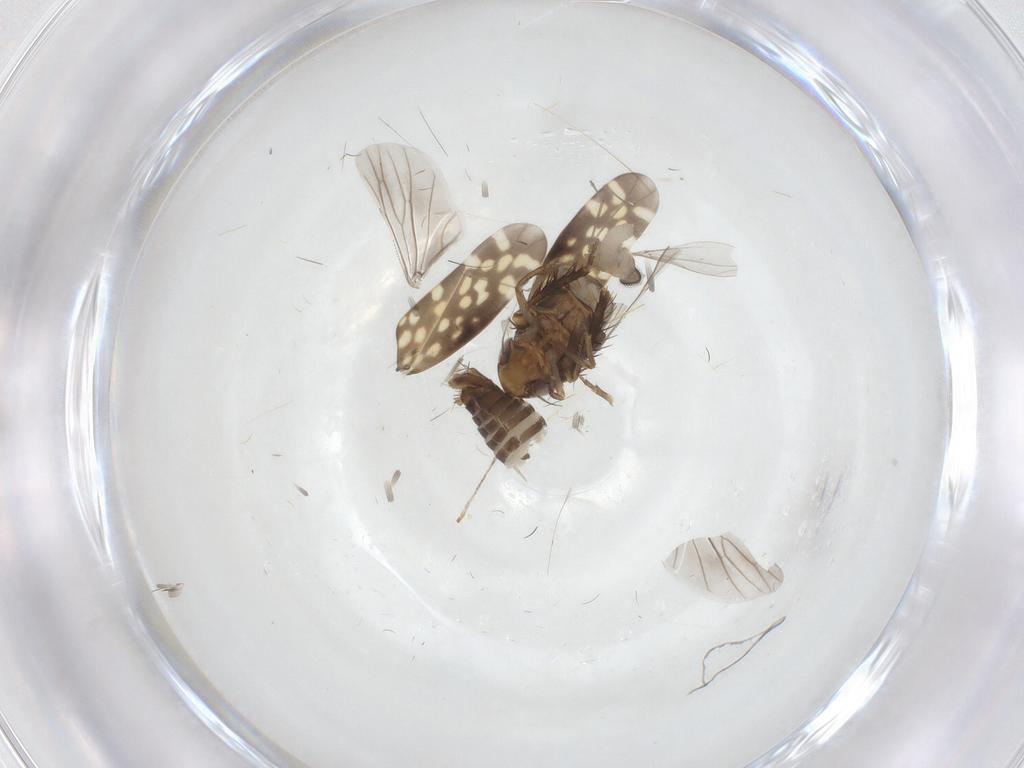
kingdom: Animalia
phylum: Arthropoda
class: Insecta
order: Hemiptera
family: Cicadellidae
